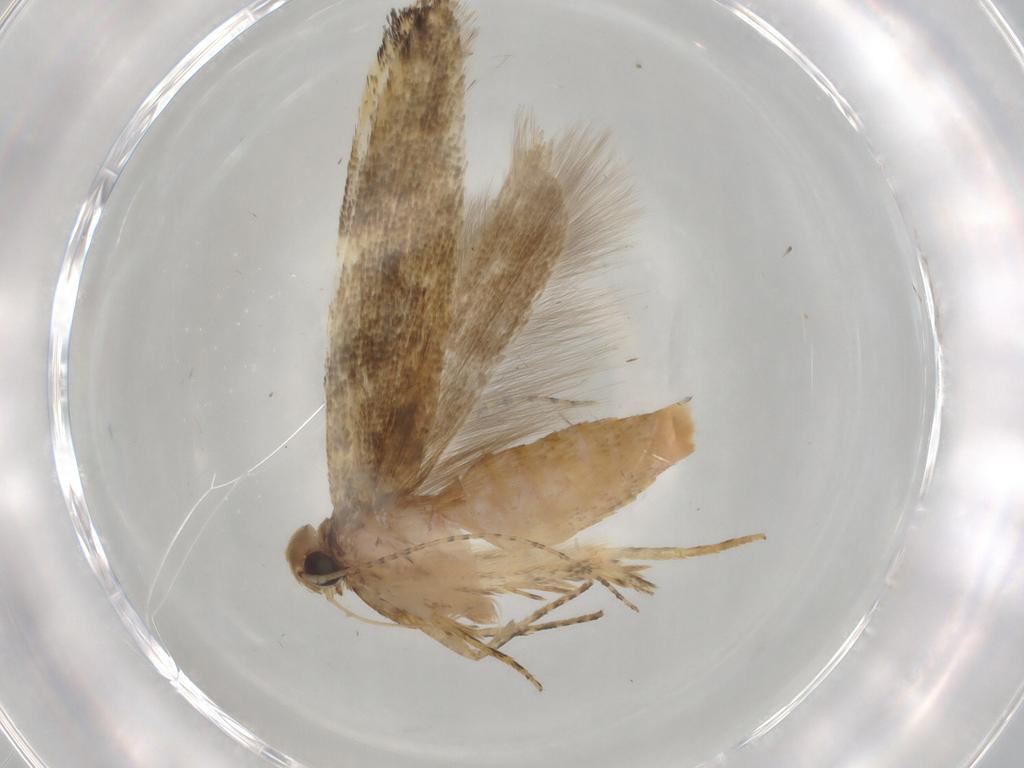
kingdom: Animalia
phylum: Arthropoda
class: Insecta
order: Lepidoptera
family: Gelechiidae
